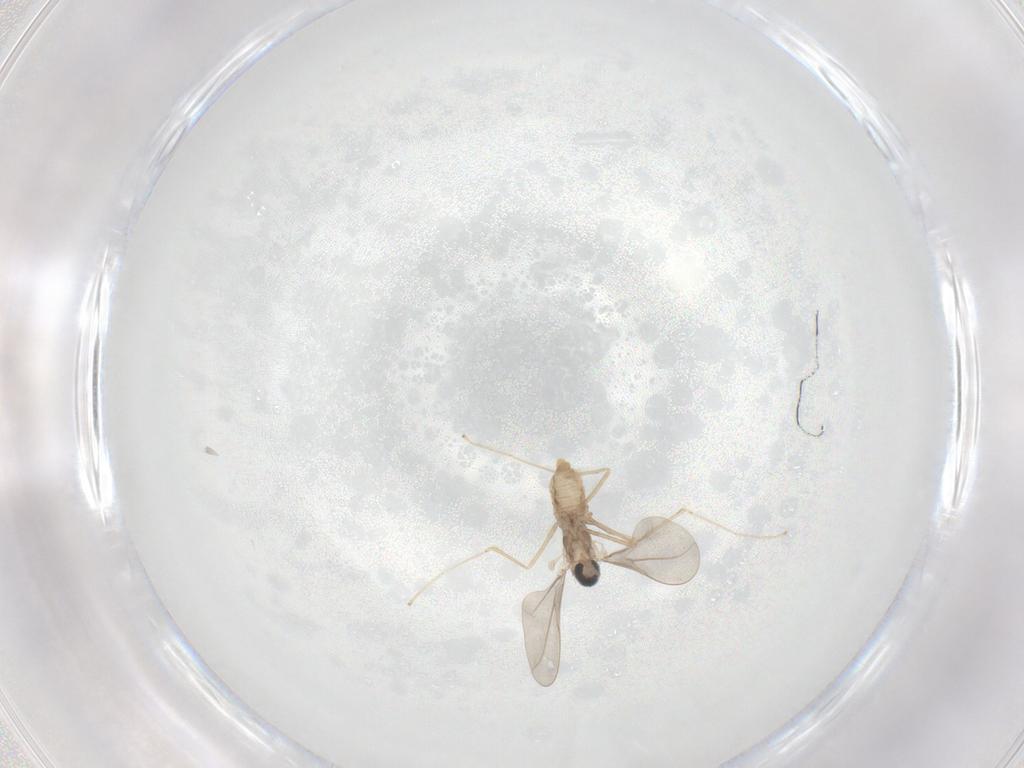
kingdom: Animalia
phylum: Arthropoda
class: Insecta
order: Diptera
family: Cecidomyiidae
